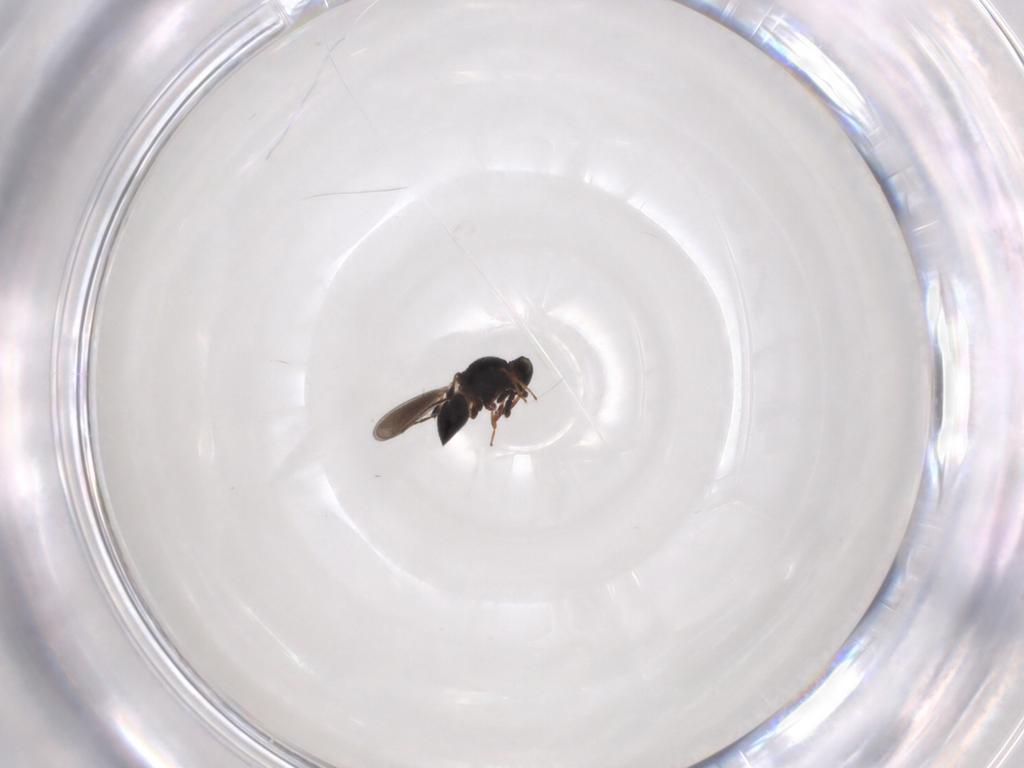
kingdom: Animalia
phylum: Arthropoda
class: Insecta
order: Hymenoptera
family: Platygastridae
